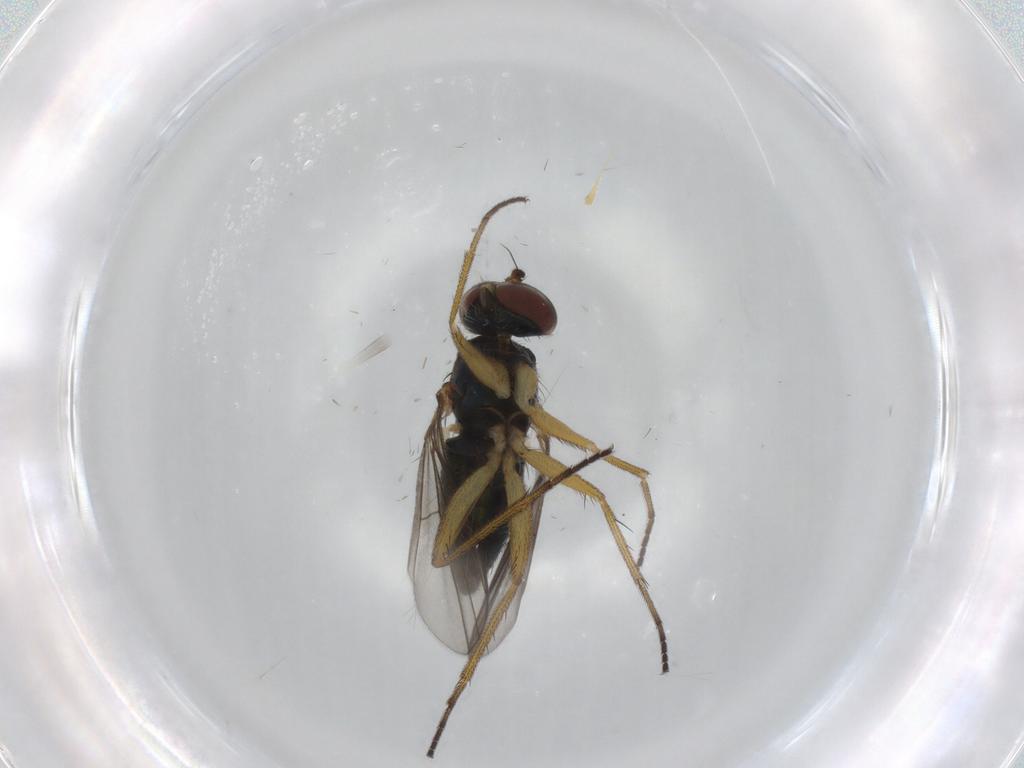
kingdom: Animalia
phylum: Arthropoda
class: Insecta
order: Diptera
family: Dolichopodidae
